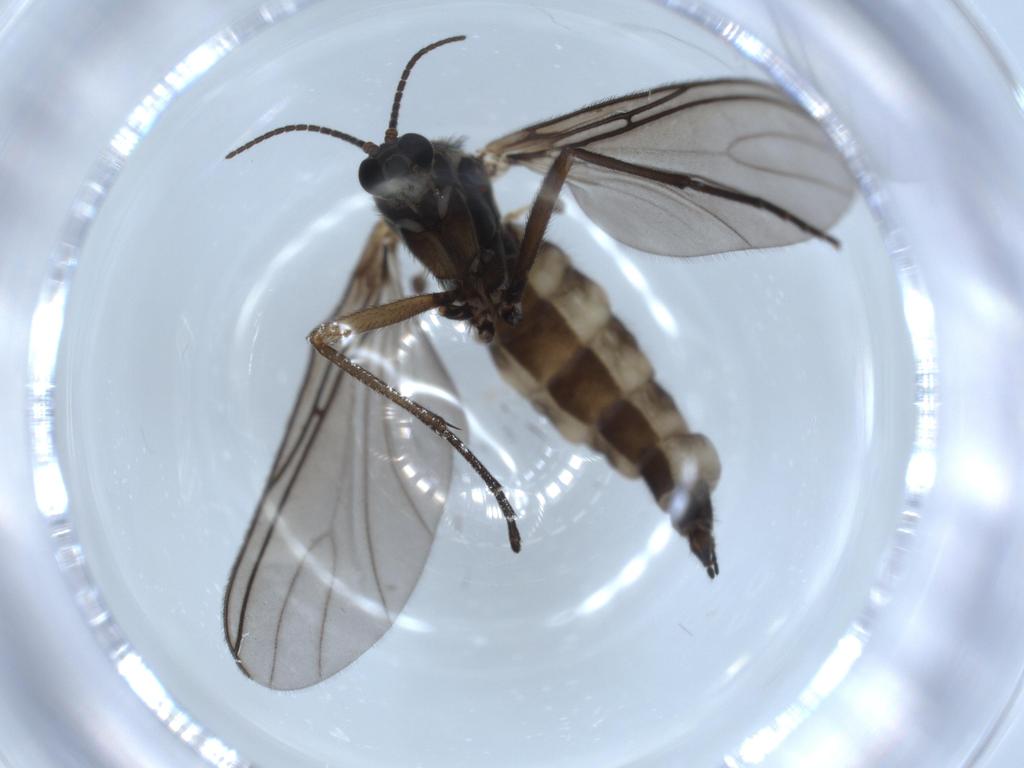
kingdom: Animalia
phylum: Arthropoda
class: Insecta
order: Diptera
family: Sciaridae
